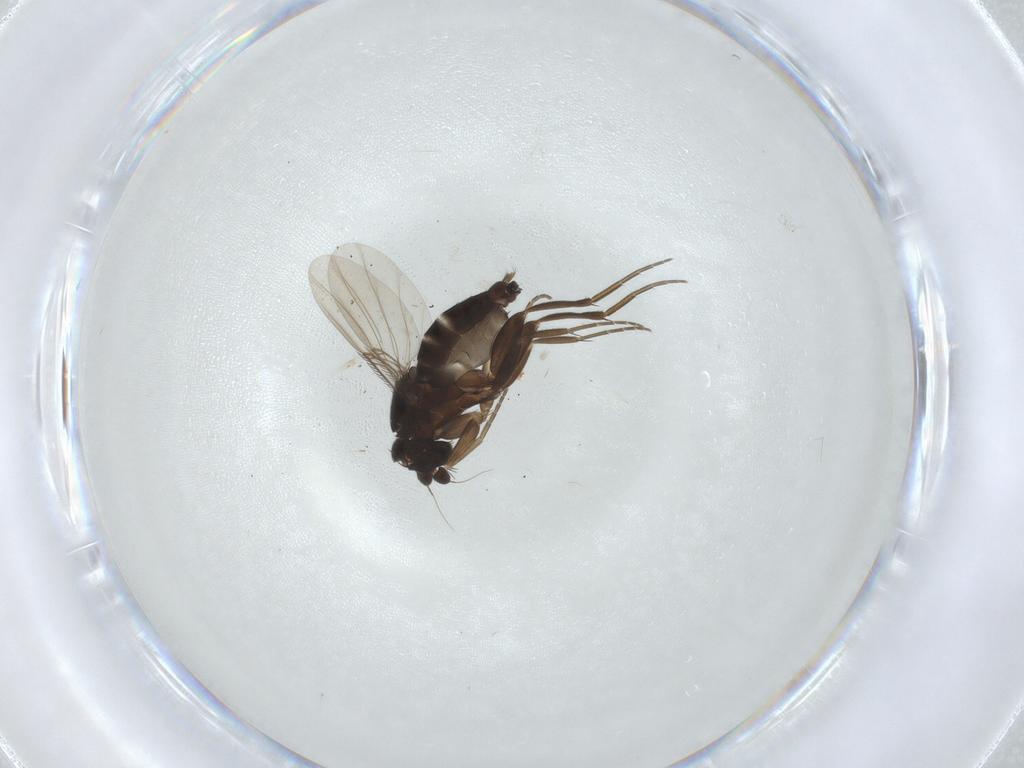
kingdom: Animalia
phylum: Arthropoda
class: Insecta
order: Diptera
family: Phoridae
